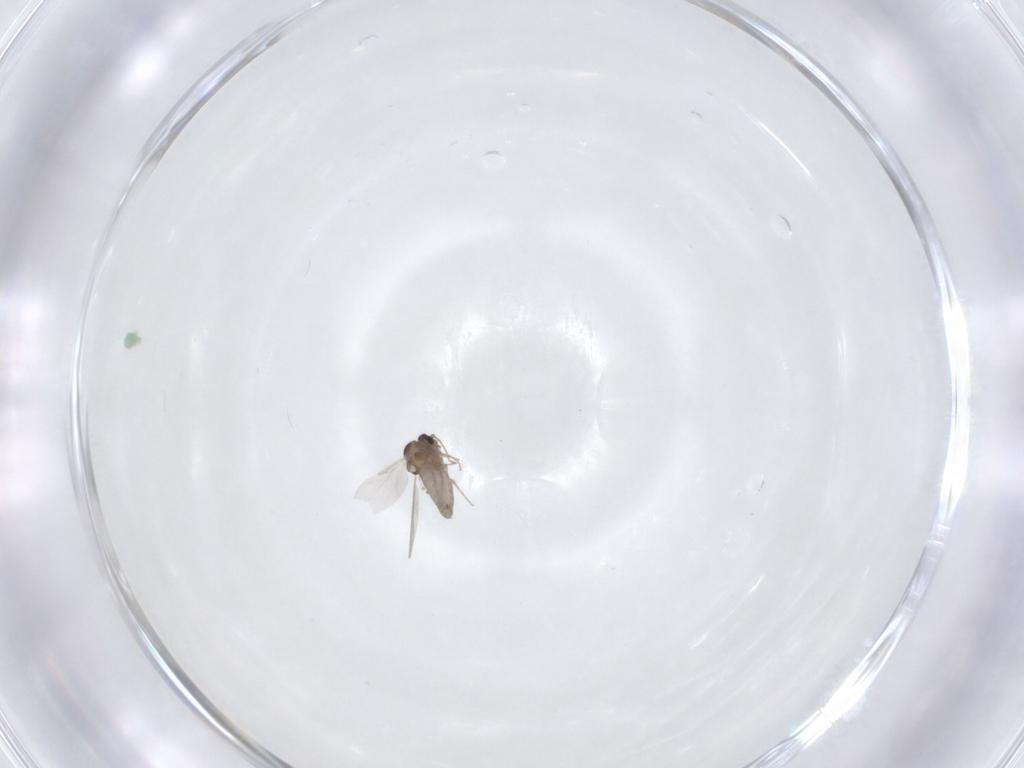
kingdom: Animalia
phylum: Arthropoda
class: Insecta
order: Diptera
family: Ceratopogonidae
